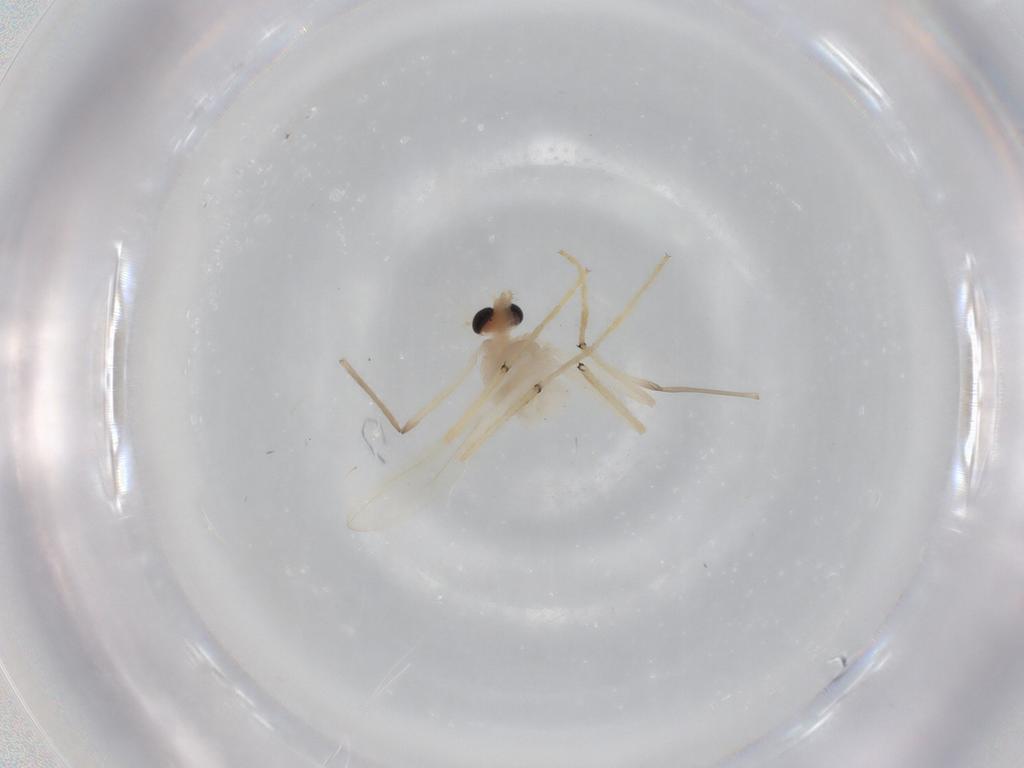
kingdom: Animalia
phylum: Arthropoda
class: Insecta
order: Diptera
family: Chironomidae
